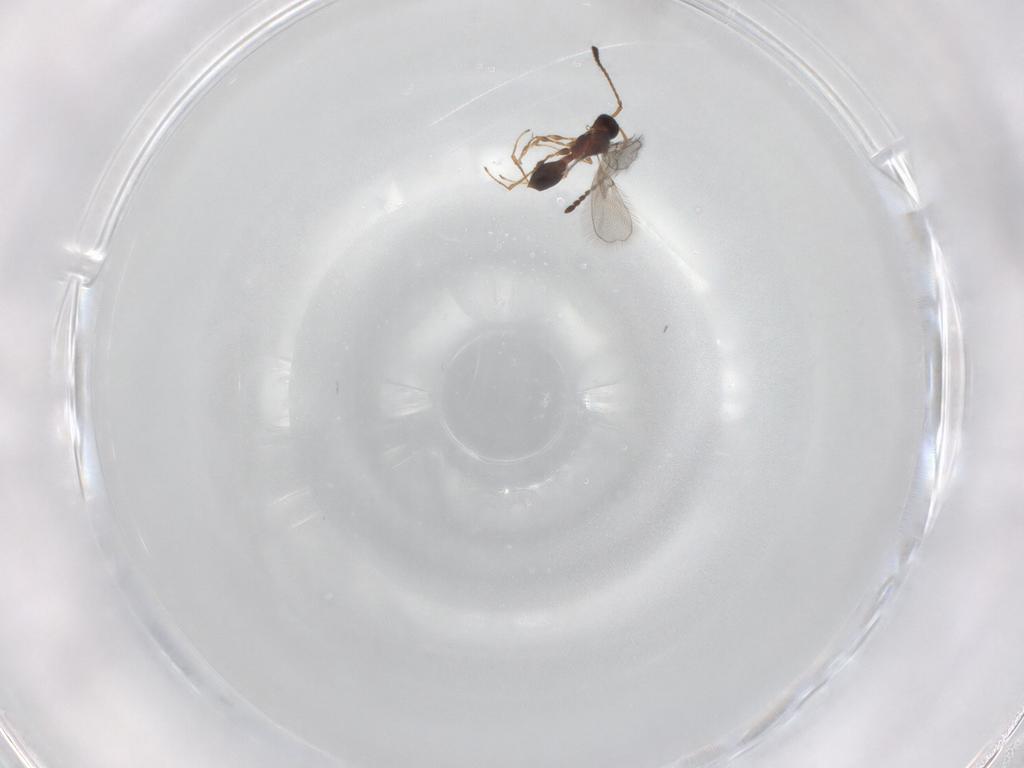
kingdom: Animalia
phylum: Arthropoda
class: Insecta
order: Hymenoptera
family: Diapriidae
